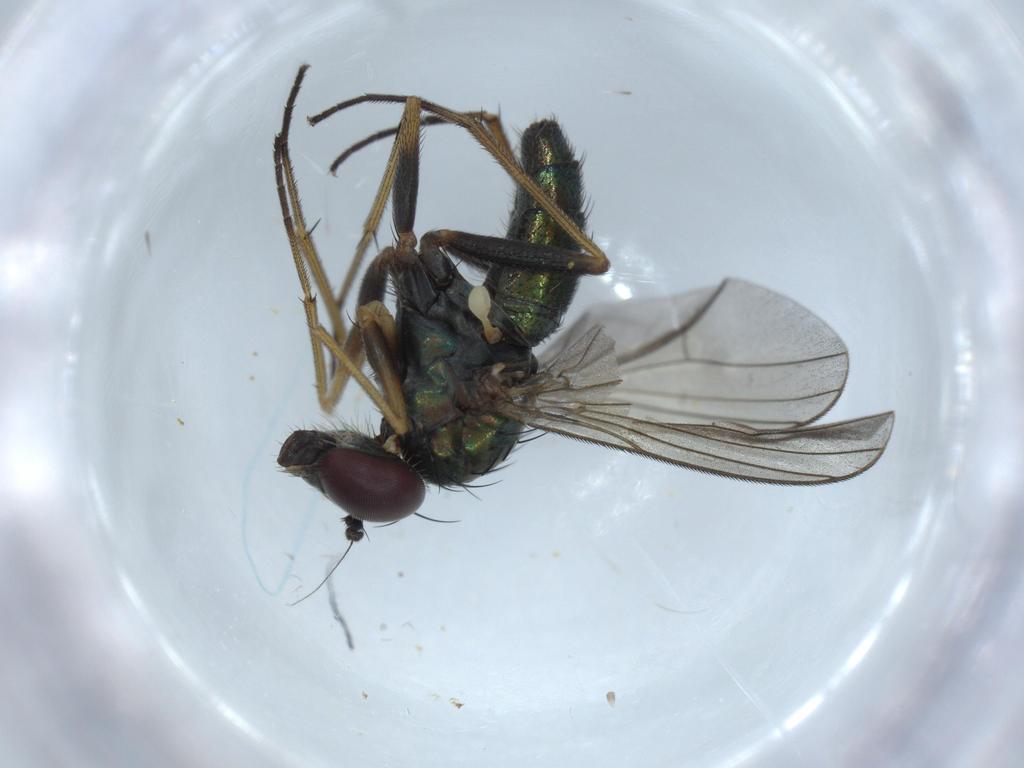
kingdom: Animalia
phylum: Arthropoda
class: Insecta
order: Diptera
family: Dolichopodidae
